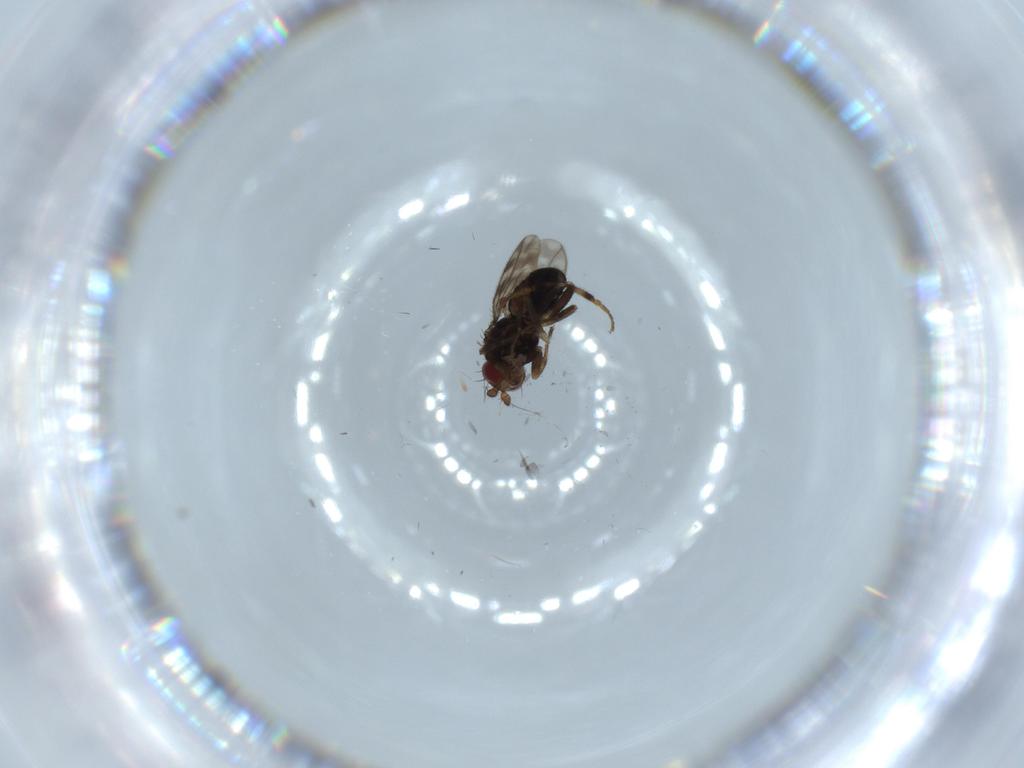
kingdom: Animalia
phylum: Arthropoda
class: Insecta
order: Diptera
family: Sphaeroceridae
